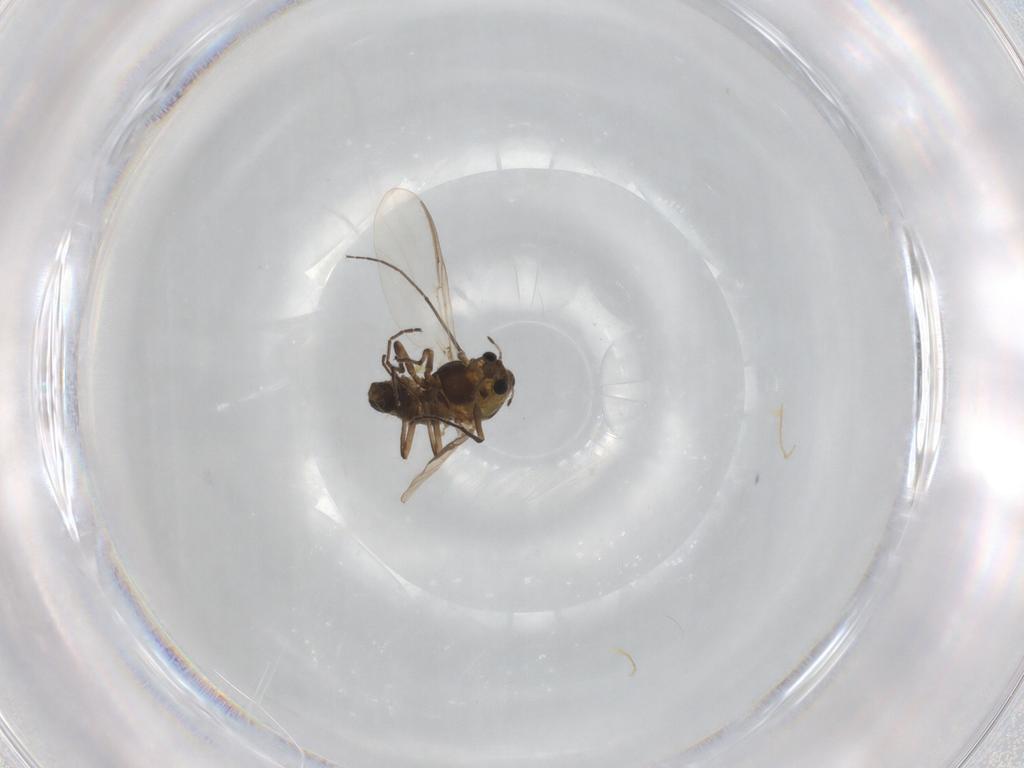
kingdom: Animalia
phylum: Arthropoda
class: Insecta
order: Diptera
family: Chironomidae
